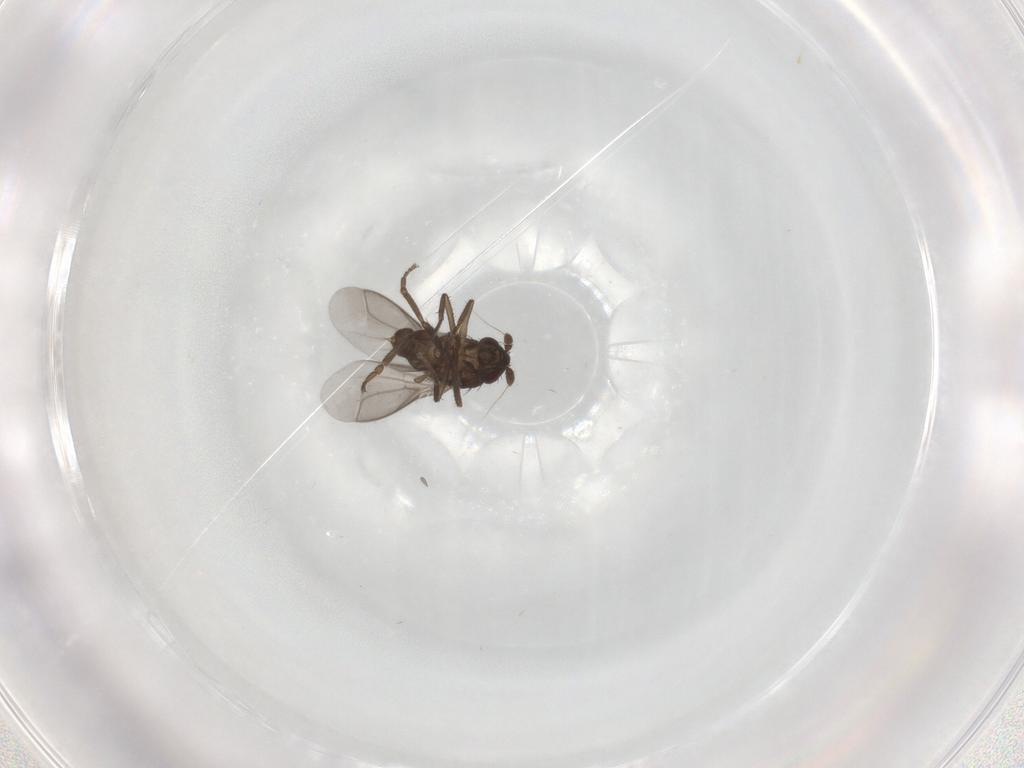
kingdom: Animalia
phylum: Arthropoda
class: Insecta
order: Diptera
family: Sphaeroceridae
